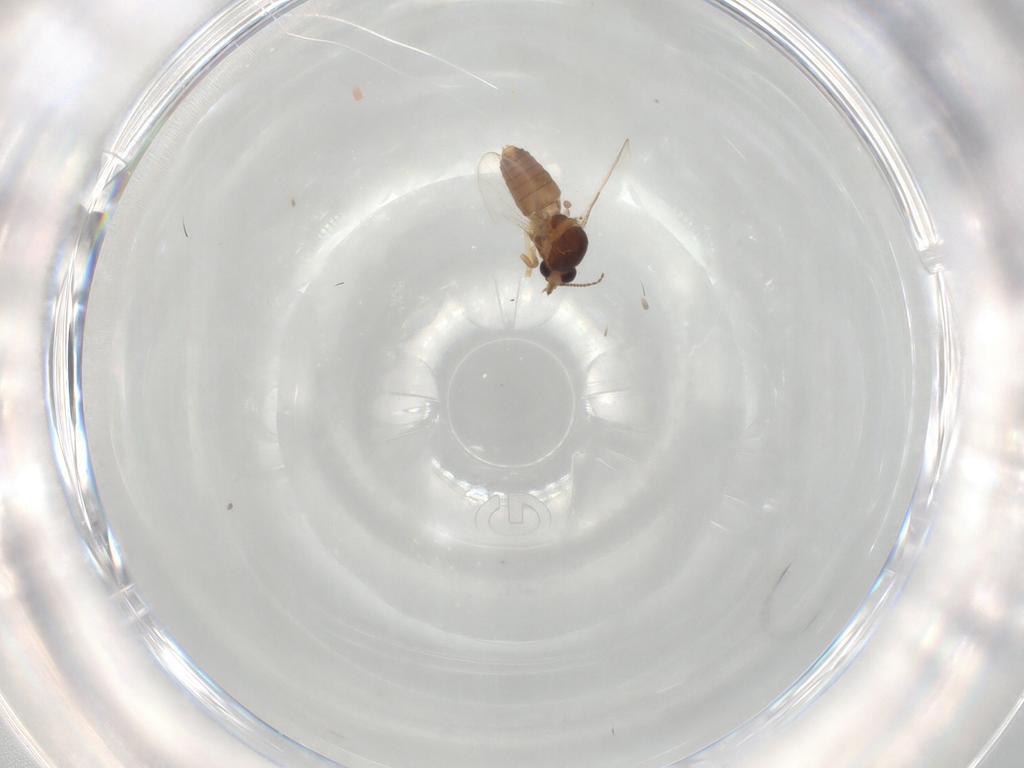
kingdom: Animalia
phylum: Arthropoda
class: Insecta
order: Diptera
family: Ceratopogonidae
